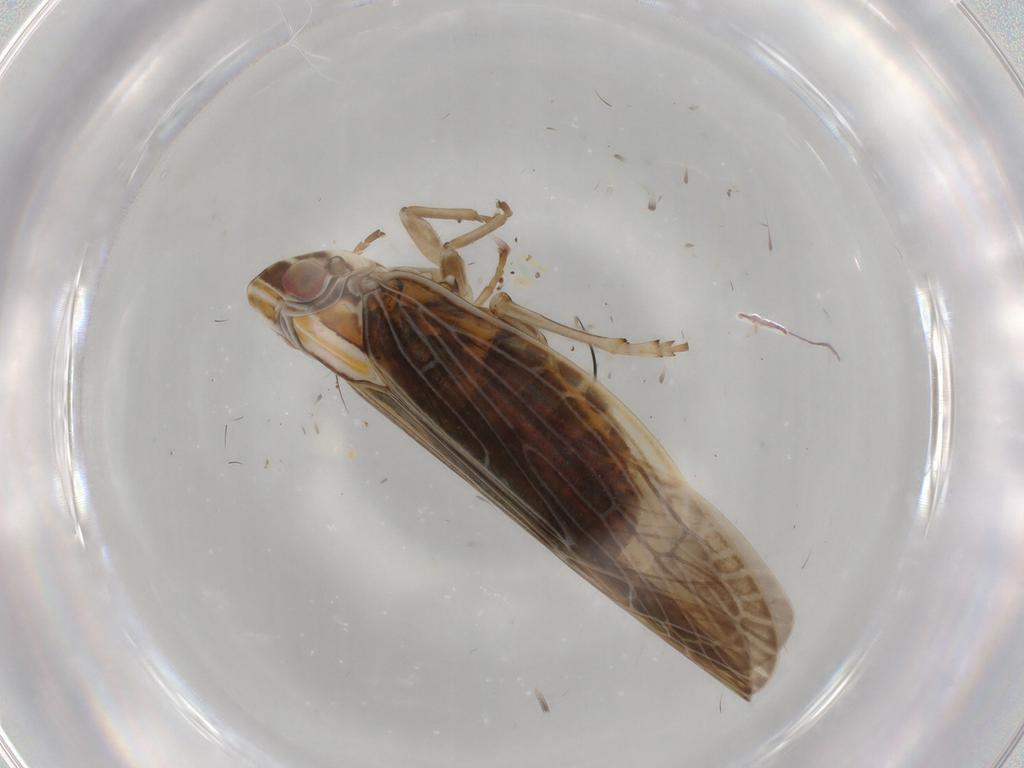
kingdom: Animalia
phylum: Arthropoda
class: Insecta
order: Hemiptera
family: Achilidae
